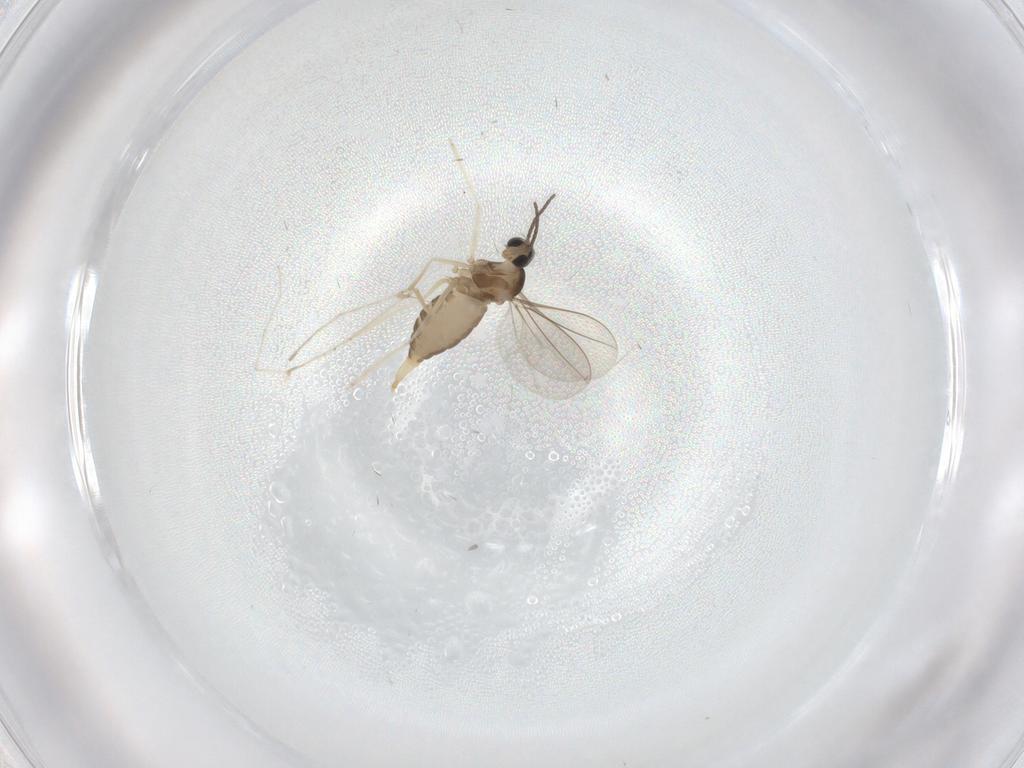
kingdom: Animalia
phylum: Arthropoda
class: Insecta
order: Diptera
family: Cecidomyiidae
